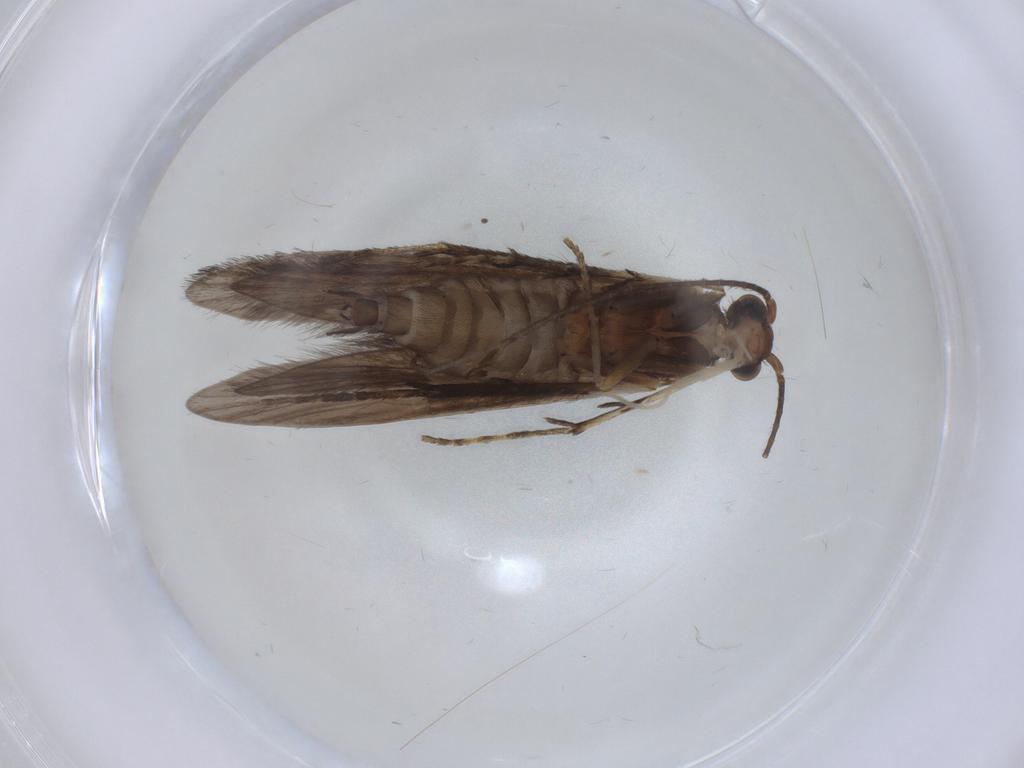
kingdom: Animalia
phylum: Arthropoda
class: Insecta
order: Trichoptera
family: Xiphocentronidae
